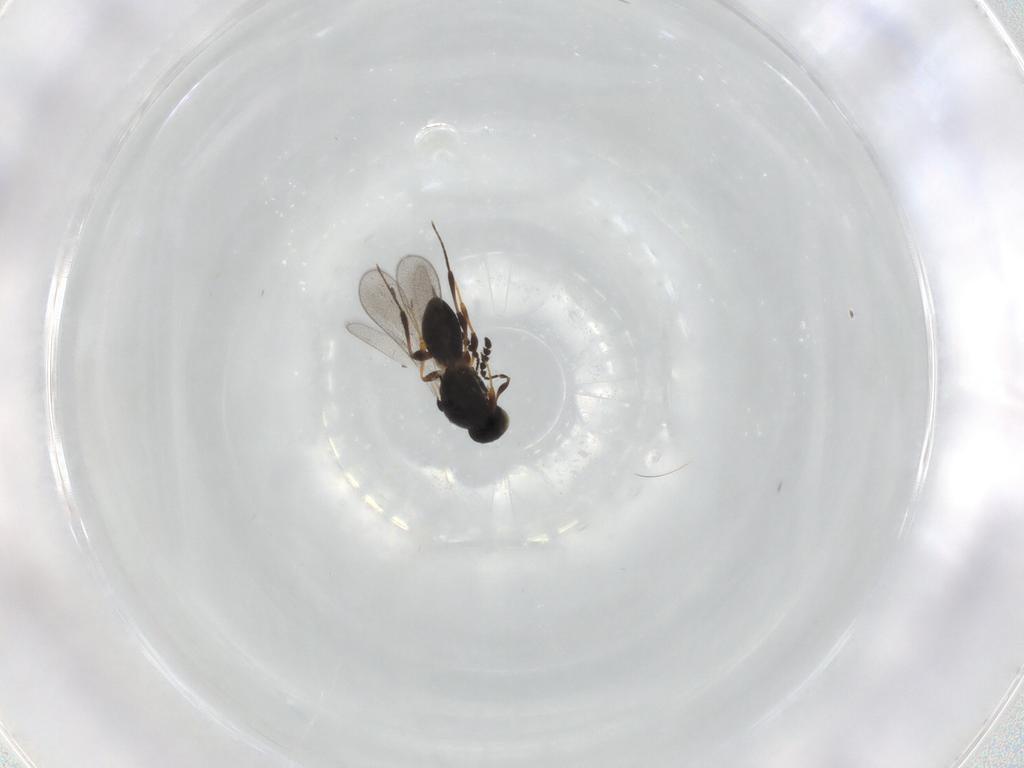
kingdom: Animalia
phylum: Arthropoda
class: Insecta
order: Hymenoptera
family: Platygastridae
